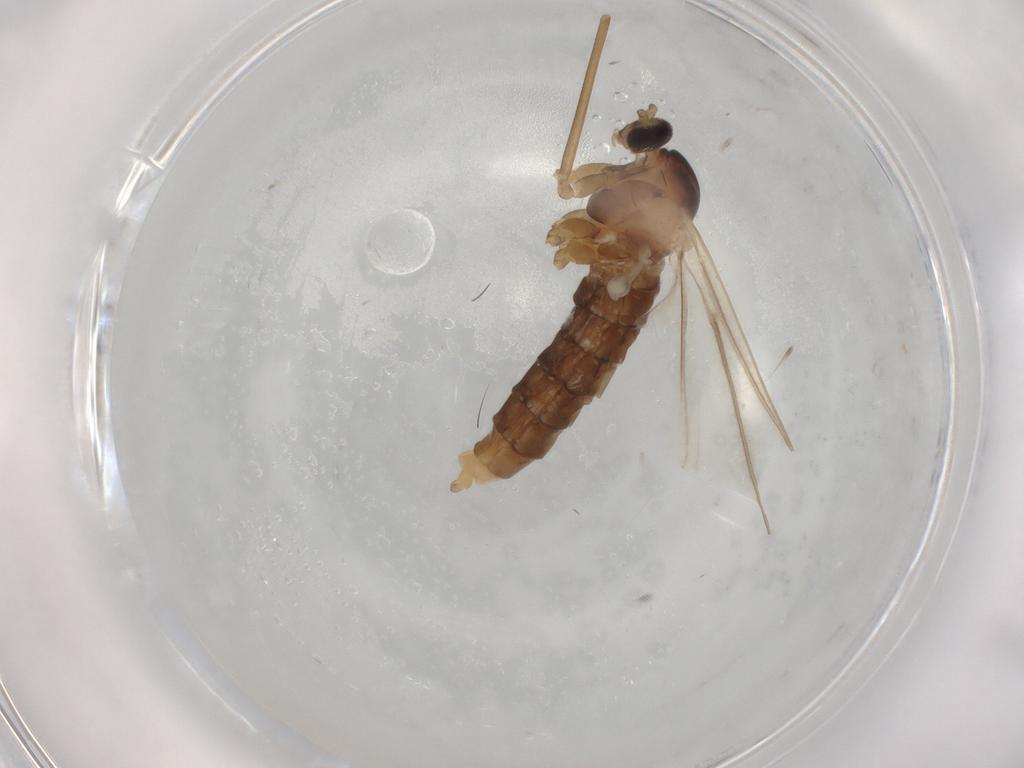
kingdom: Animalia
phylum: Arthropoda
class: Insecta
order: Diptera
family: Cecidomyiidae
